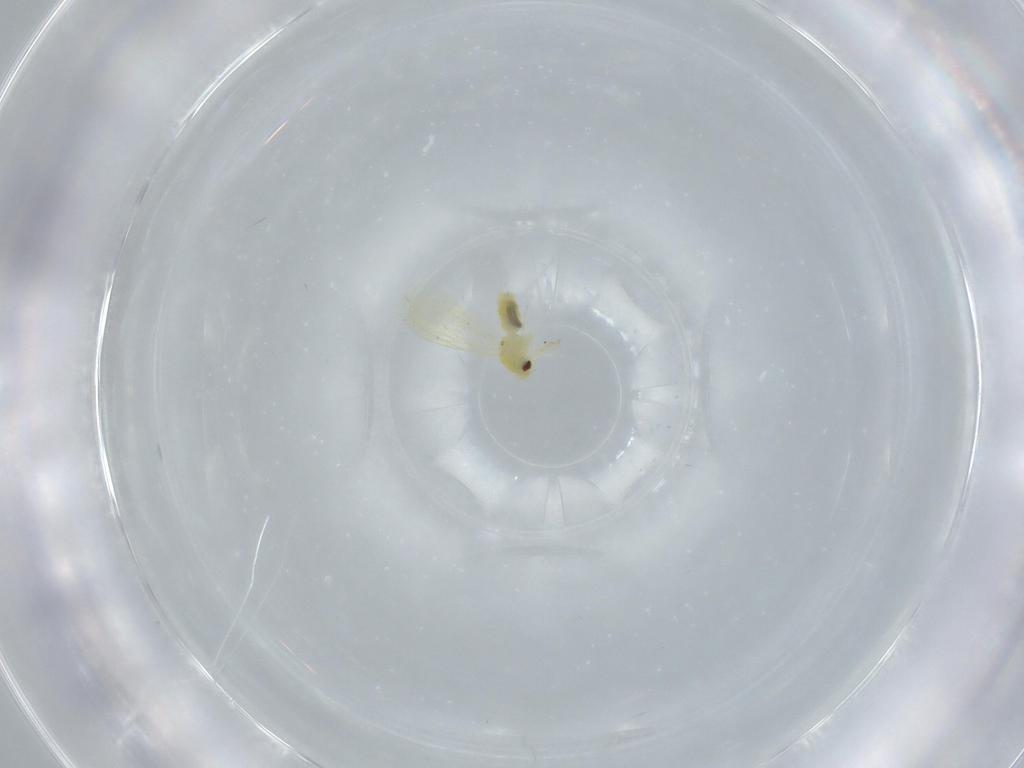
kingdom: Animalia
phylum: Arthropoda
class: Insecta
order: Hemiptera
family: Aleyrodidae
